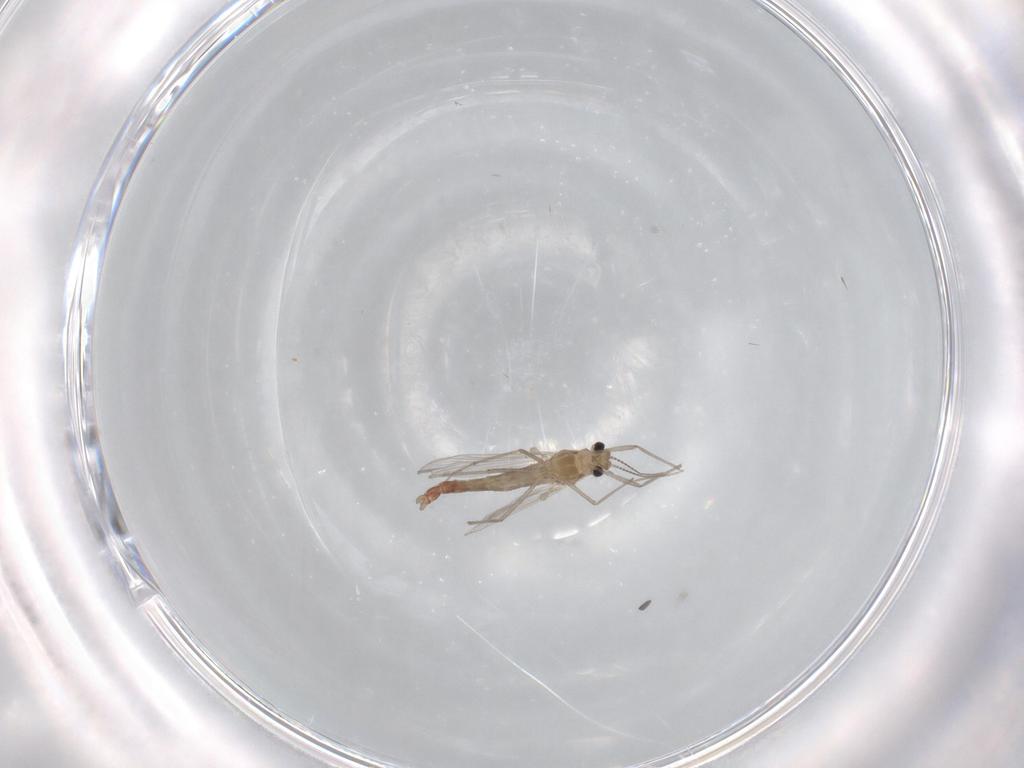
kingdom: Animalia
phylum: Arthropoda
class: Insecta
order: Diptera
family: Chironomidae
